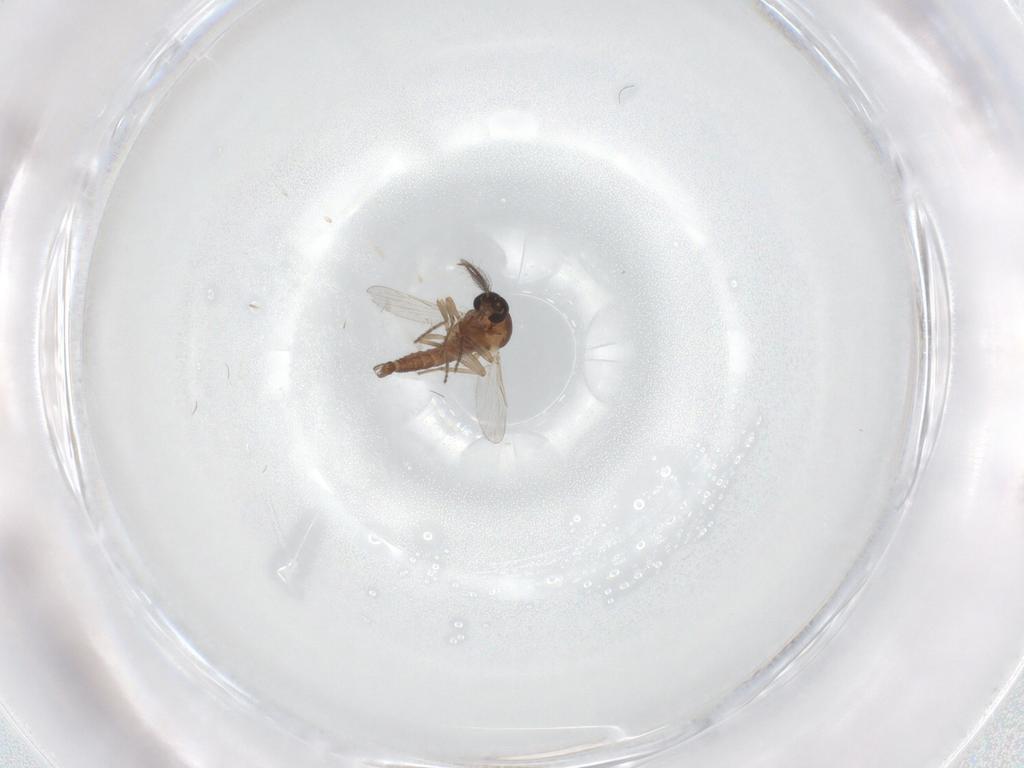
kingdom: Animalia
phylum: Arthropoda
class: Insecta
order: Diptera
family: Ceratopogonidae
